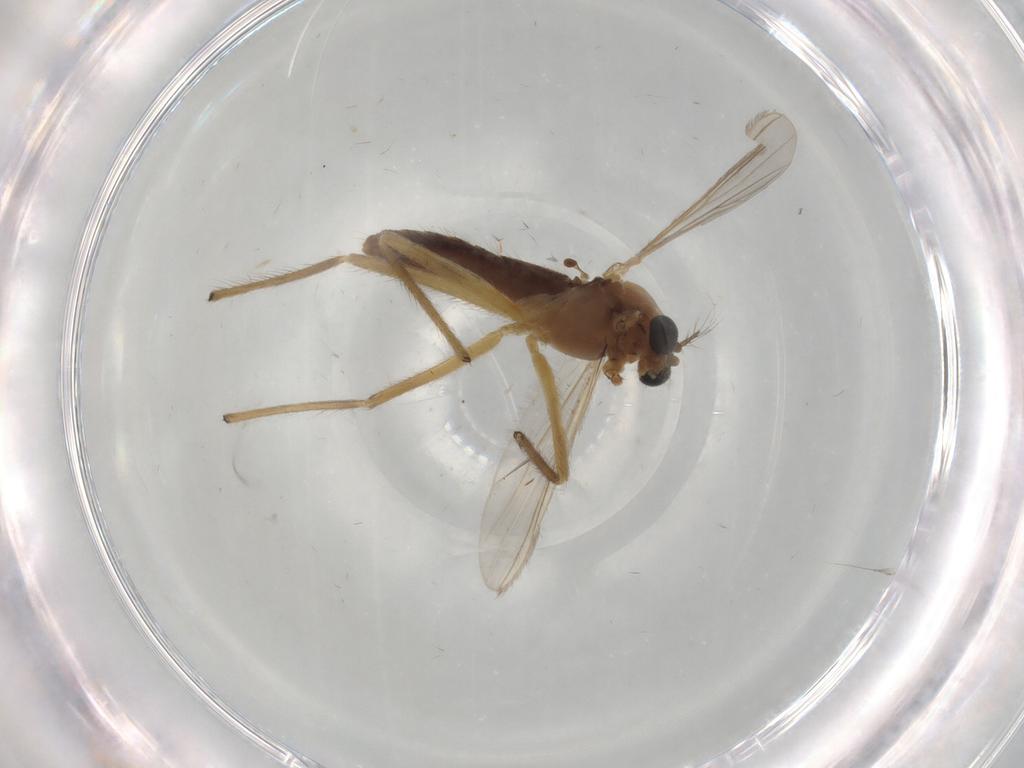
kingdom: Animalia
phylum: Arthropoda
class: Insecta
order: Diptera
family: Chironomidae
